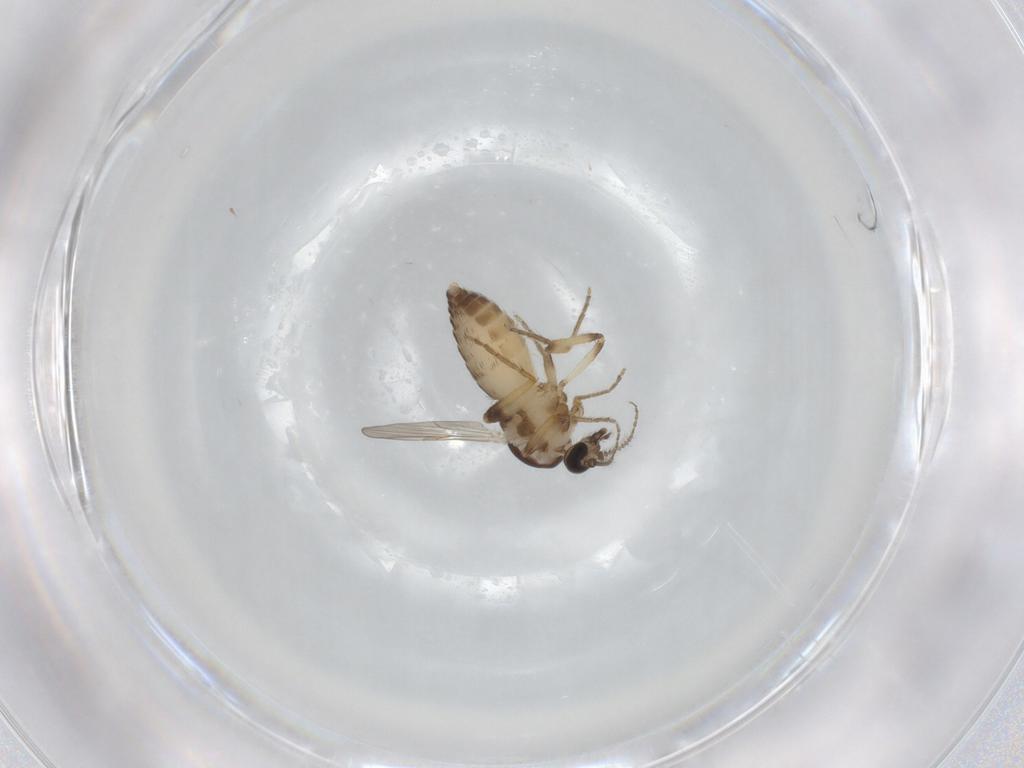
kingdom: Animalia
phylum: Arthropoda
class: Insecta
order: Diptera
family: Ceratopogonidae
